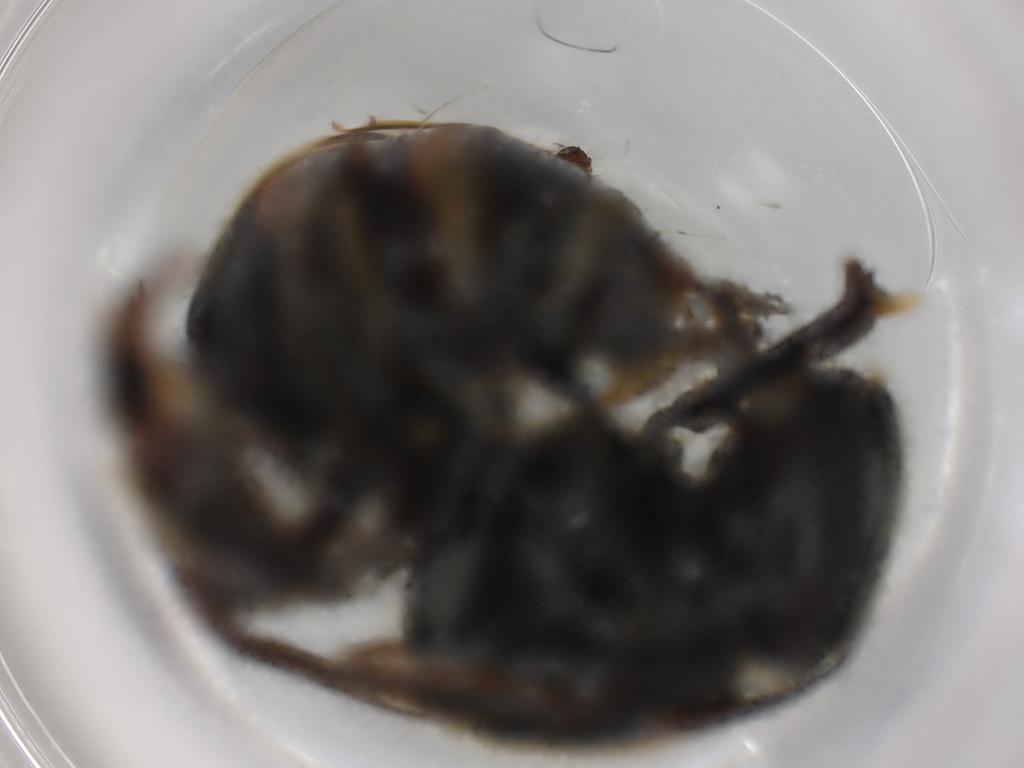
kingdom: Animalia
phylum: Arthropoda
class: Insecta
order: Hymenoptera
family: Halictidae
